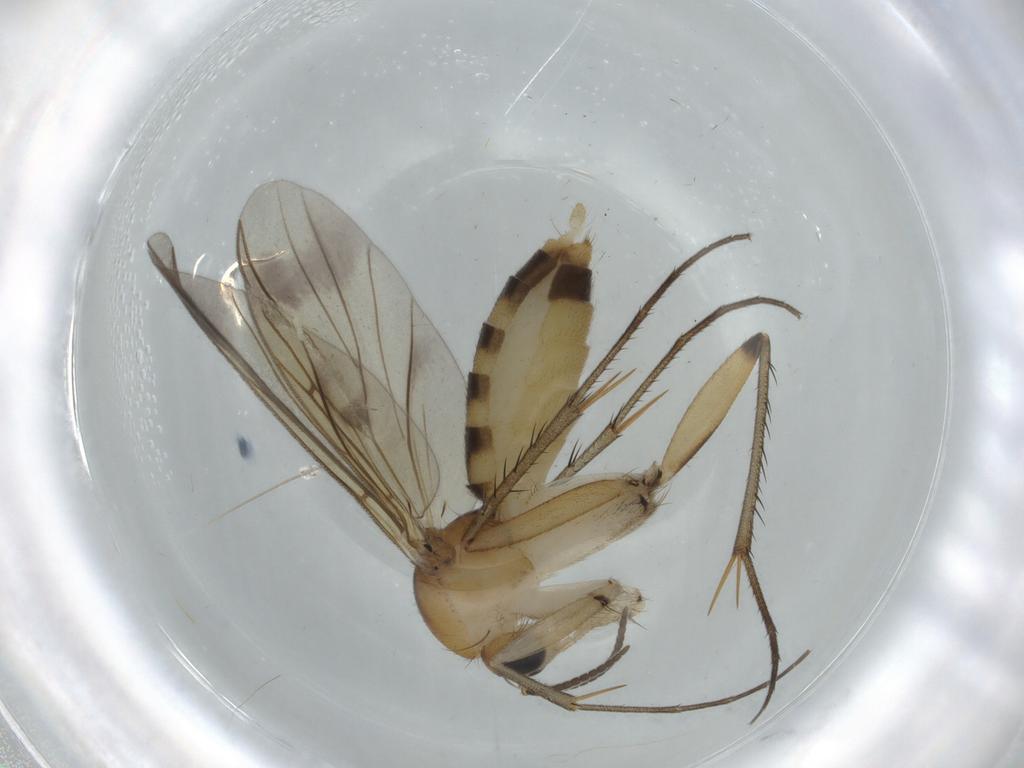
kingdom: Animalia
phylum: Arthropoda
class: Insecta
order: Diptera
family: Mycetophilidae
